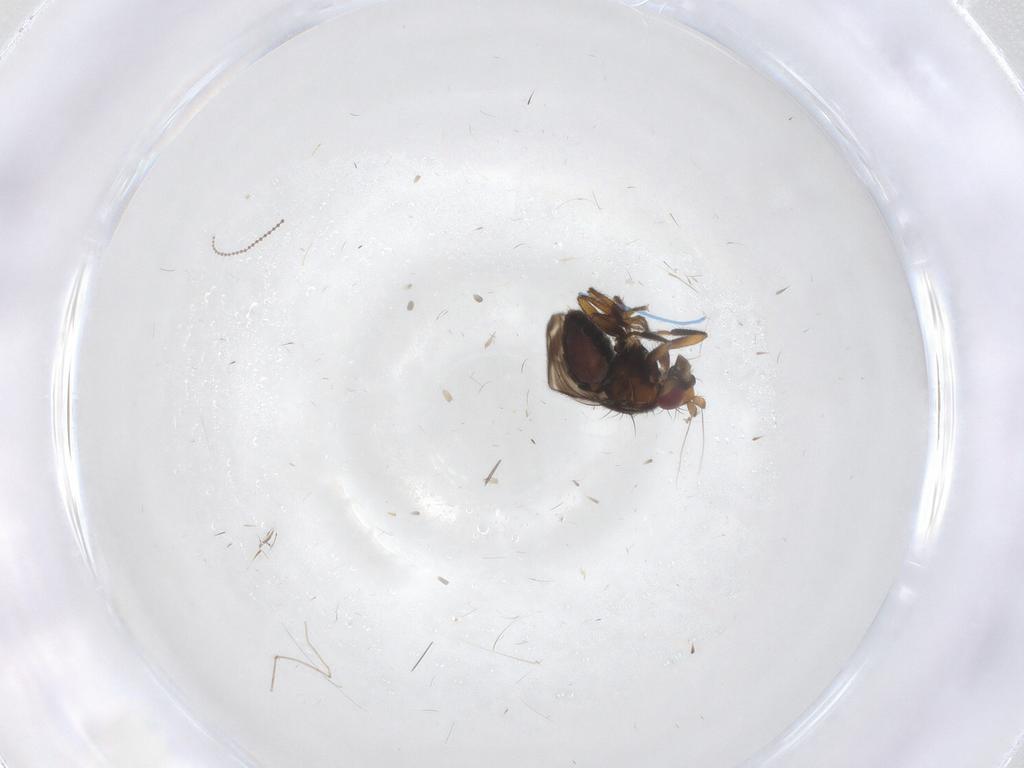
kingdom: Animalia
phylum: Arthropoda
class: Insecta
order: Diptera
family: Sphaeroceridae
